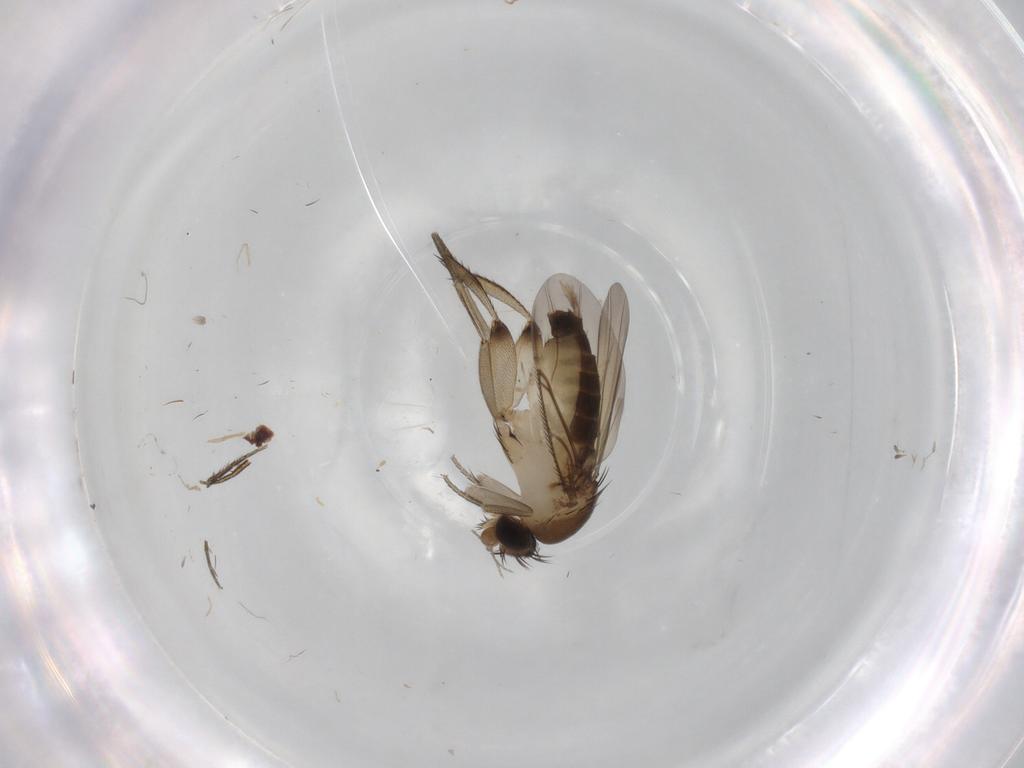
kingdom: Animalia
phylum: Arthropoda
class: Insecta
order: Diptera
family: Phoridae
